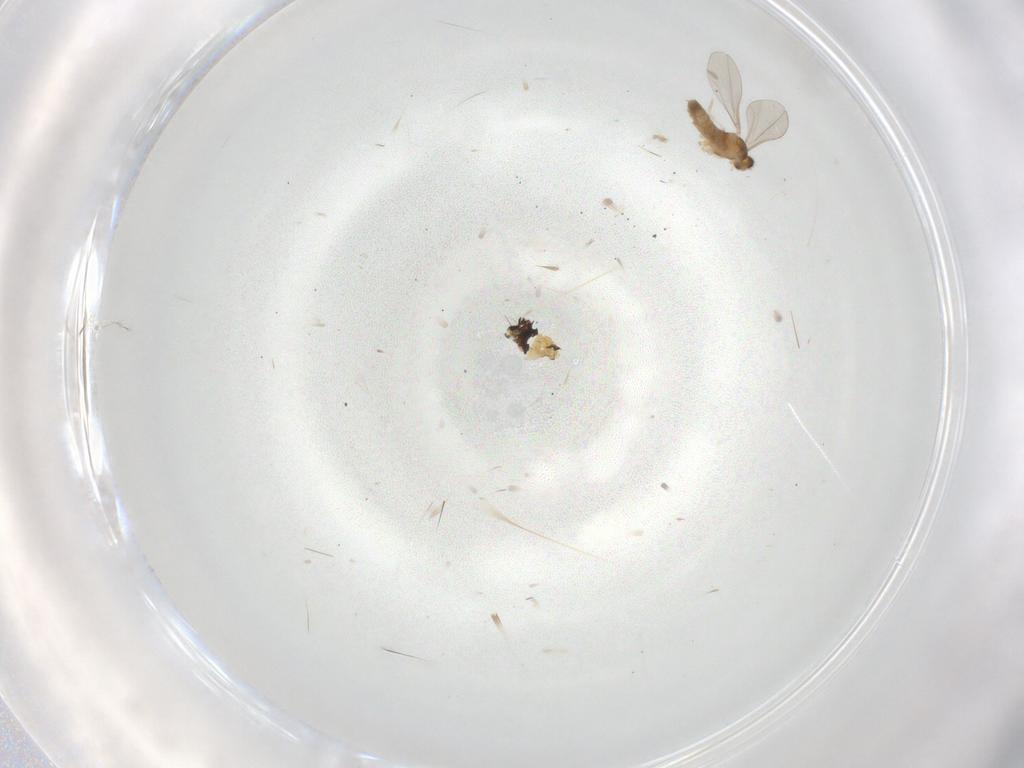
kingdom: Animalia
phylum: Arthropoda
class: Insecta
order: Diptera
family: Muscidae
